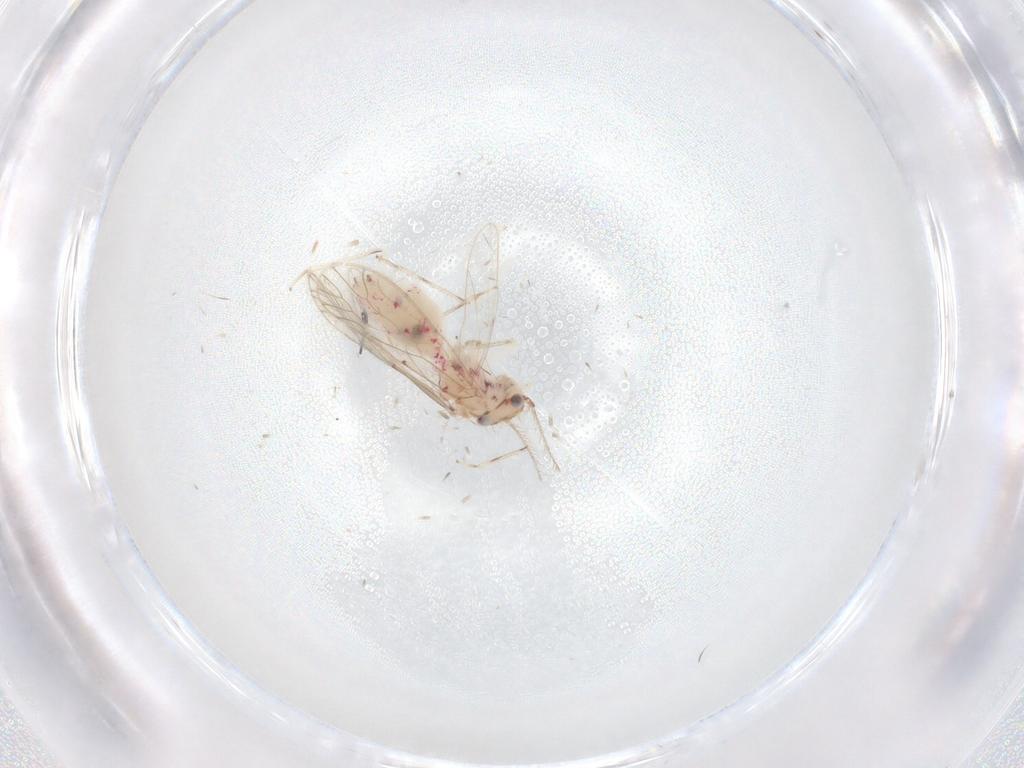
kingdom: Animalia
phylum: Arthropoda
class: Insecta
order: Psocodea
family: Caeciliusidae
